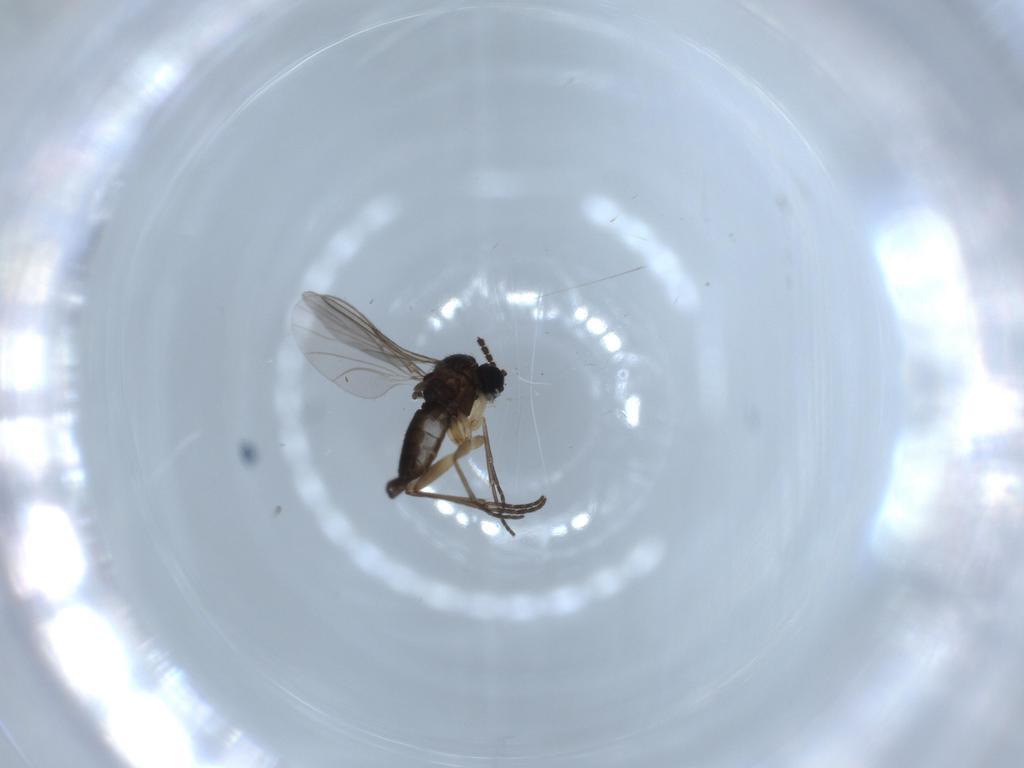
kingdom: Animalia
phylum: Arthropoda
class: Insecta
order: Diptera
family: Sciaridae
